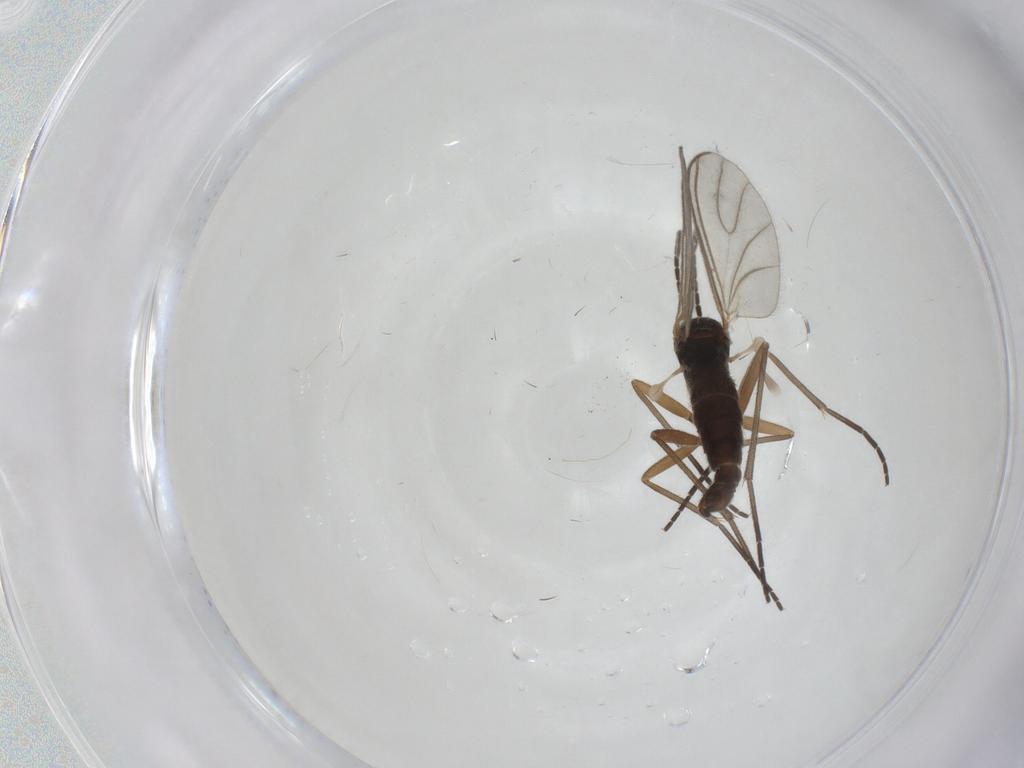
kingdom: Animalia
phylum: Arthropoda
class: Insecta
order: Diptera
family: Sciaridae
